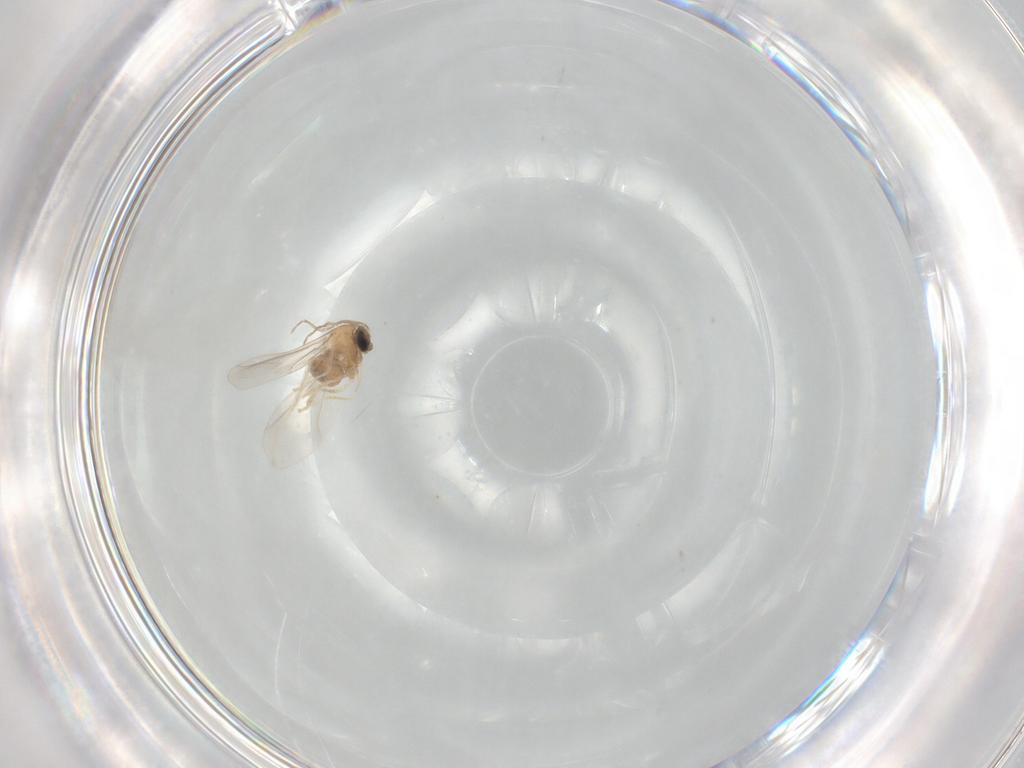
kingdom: Animalia
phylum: Arthropoda
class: Insecta
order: Diptera
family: Cecidomyiidae
